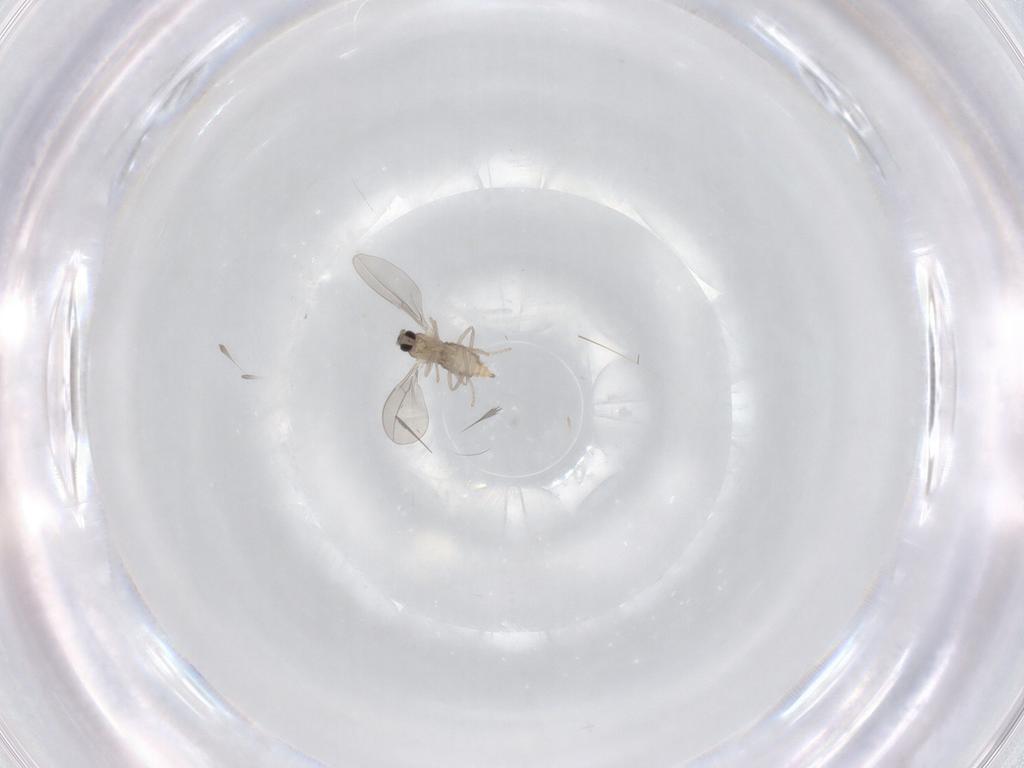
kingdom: Animalia
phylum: Arthropoda
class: Insecta
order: Diptera
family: Cecidomyiidae
